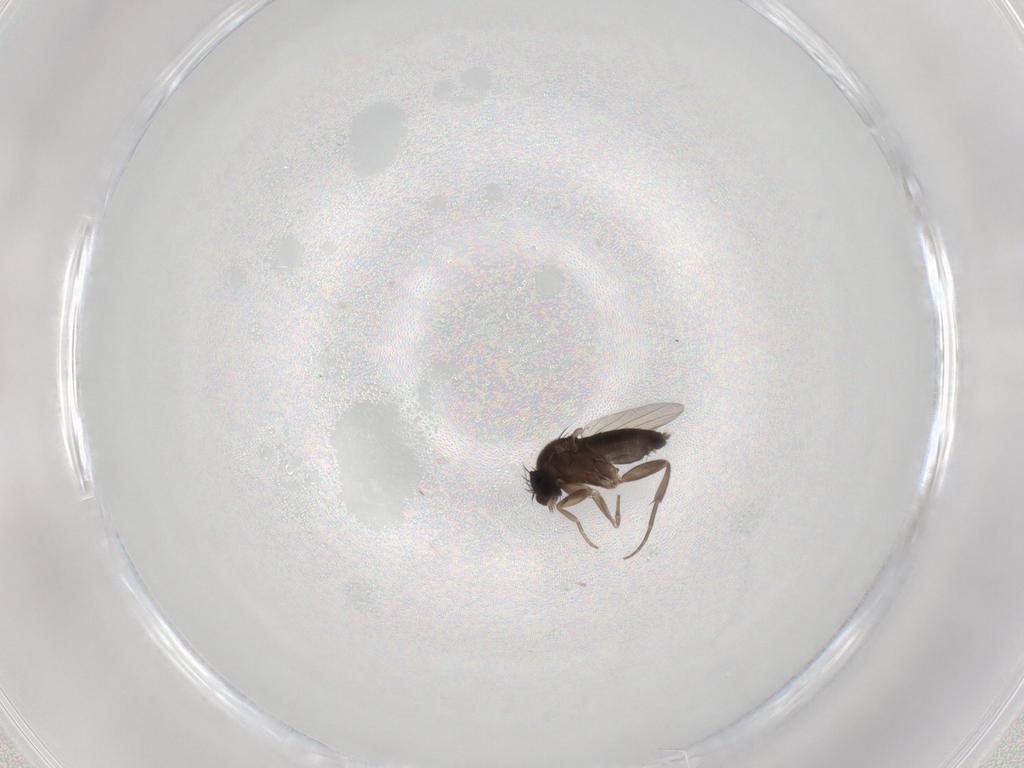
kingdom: Animalia
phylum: Arthropoda
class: Insecta
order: Diptera
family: Phoridae
